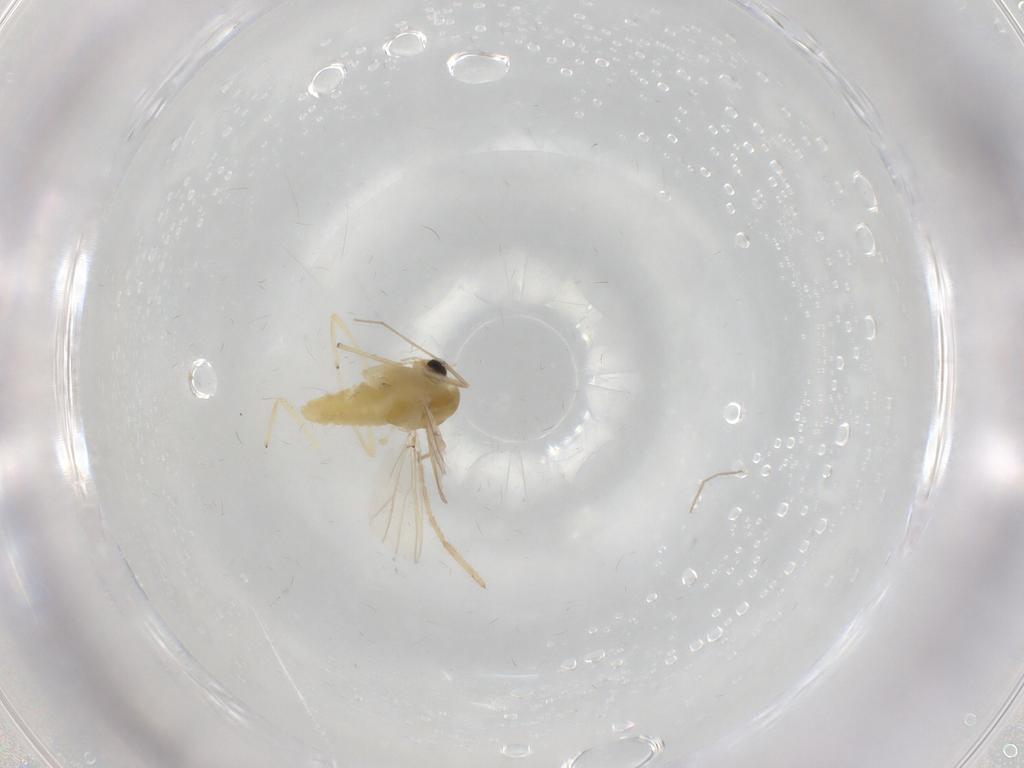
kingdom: Animalia
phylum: Arthropoda
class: Insecta
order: Diptera
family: Chironomidae
